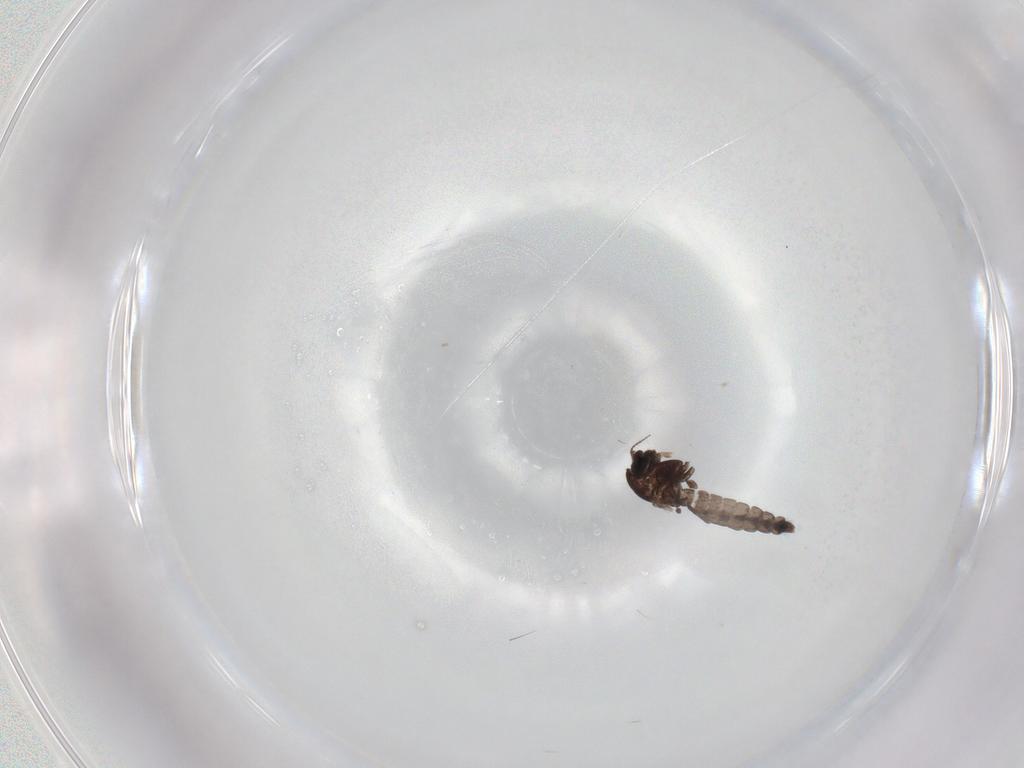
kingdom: Animalia
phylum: Arthropoda
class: Insecta
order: Diptera
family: Chironomidae
